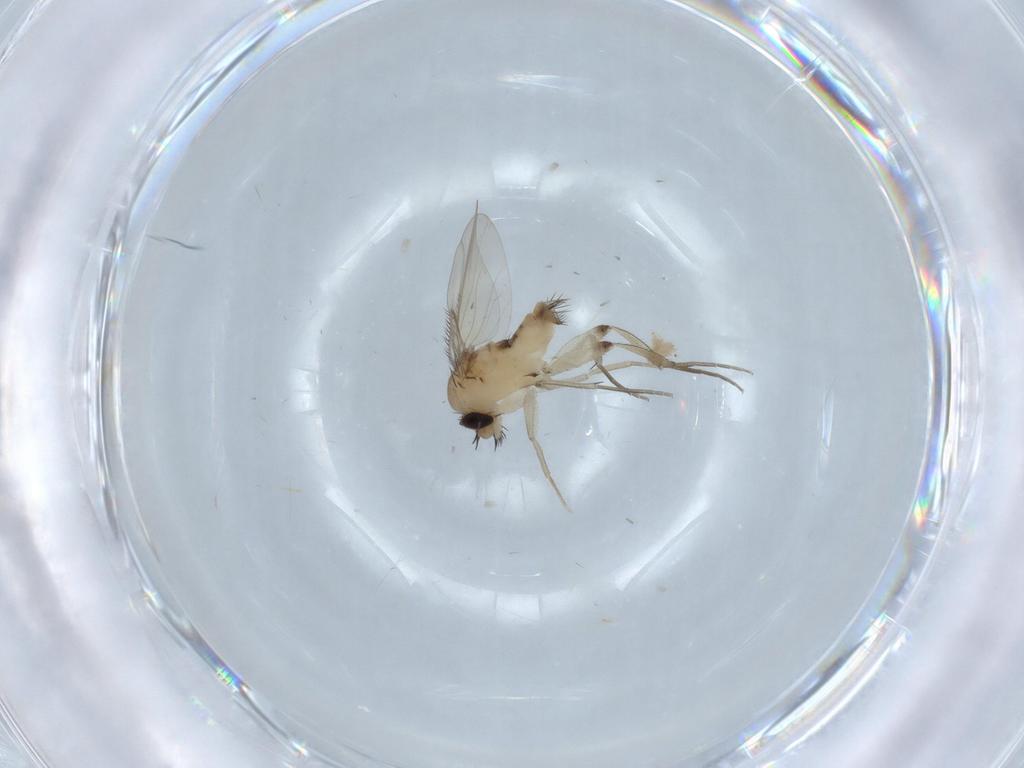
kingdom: Animalia
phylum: Arthropoda
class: Insecta
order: Diptera
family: Phoridae
